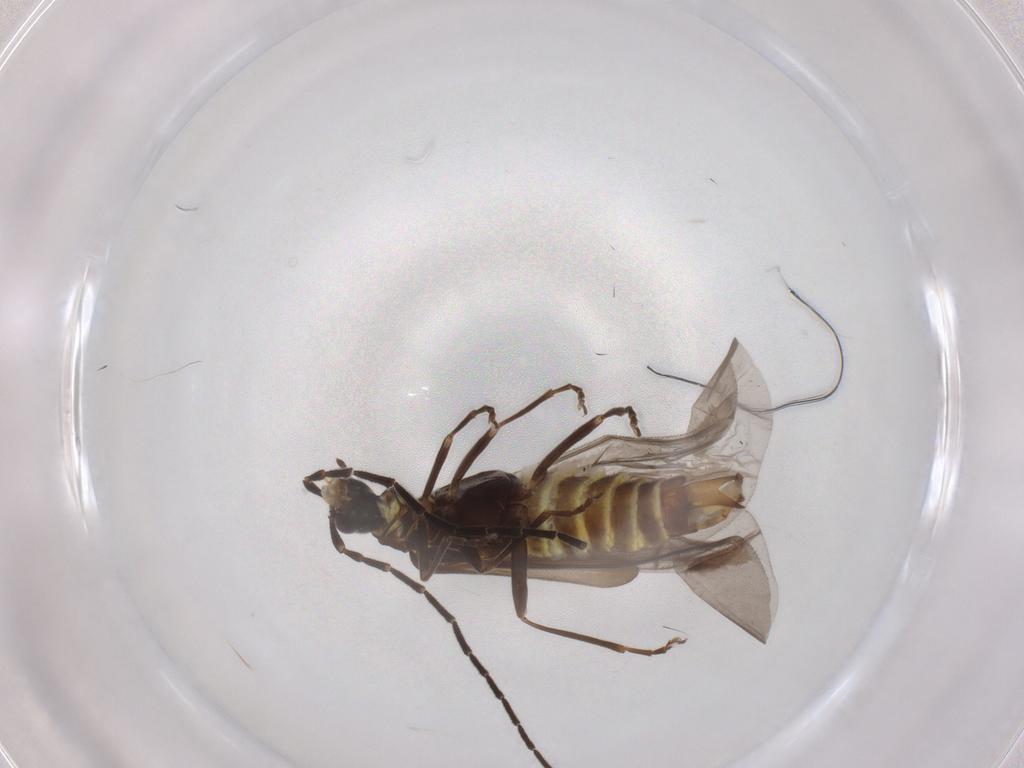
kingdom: Animalia
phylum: Arthropoda
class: Insecta
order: Coleoptera
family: Cantharidae
